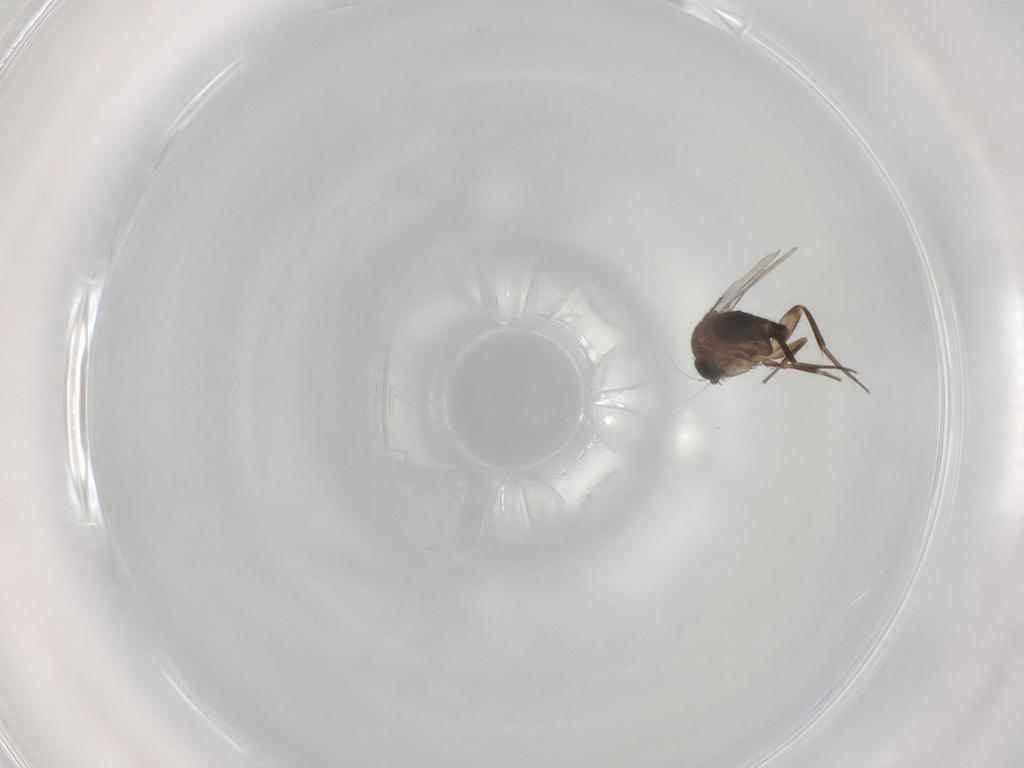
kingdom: Animalia
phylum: Arthropoda
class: Insecta
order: Diptera
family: Phoridae
